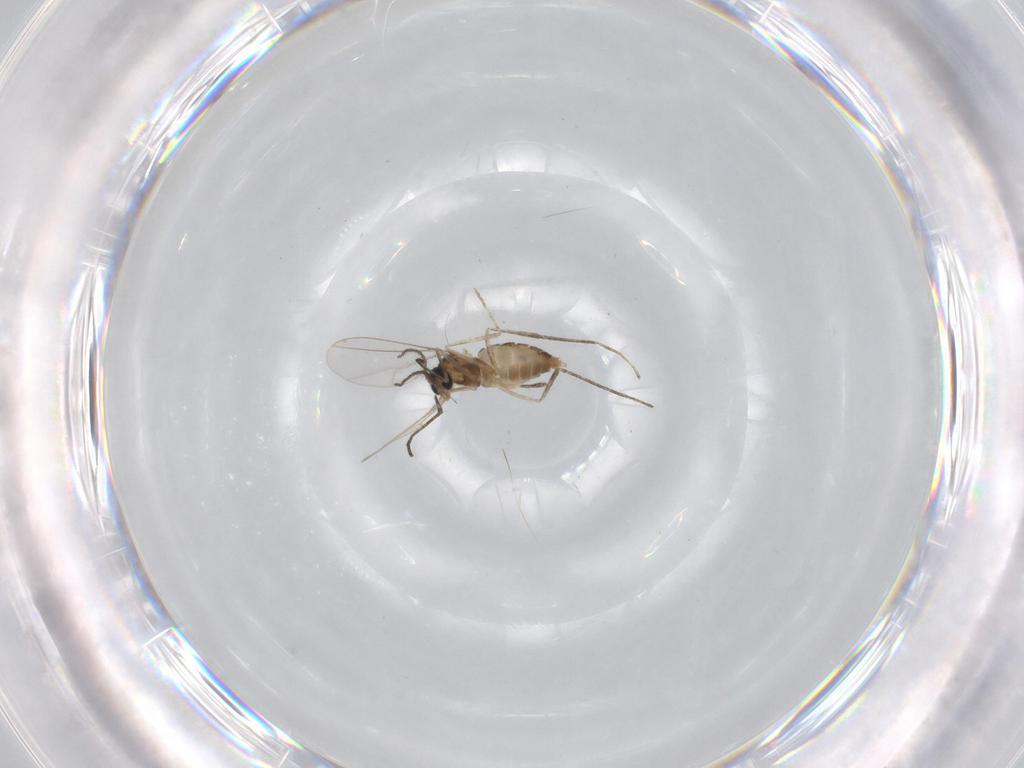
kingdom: Animalia
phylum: Arthropoda
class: Insecta
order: Diptera
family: Cecidomyiidae
